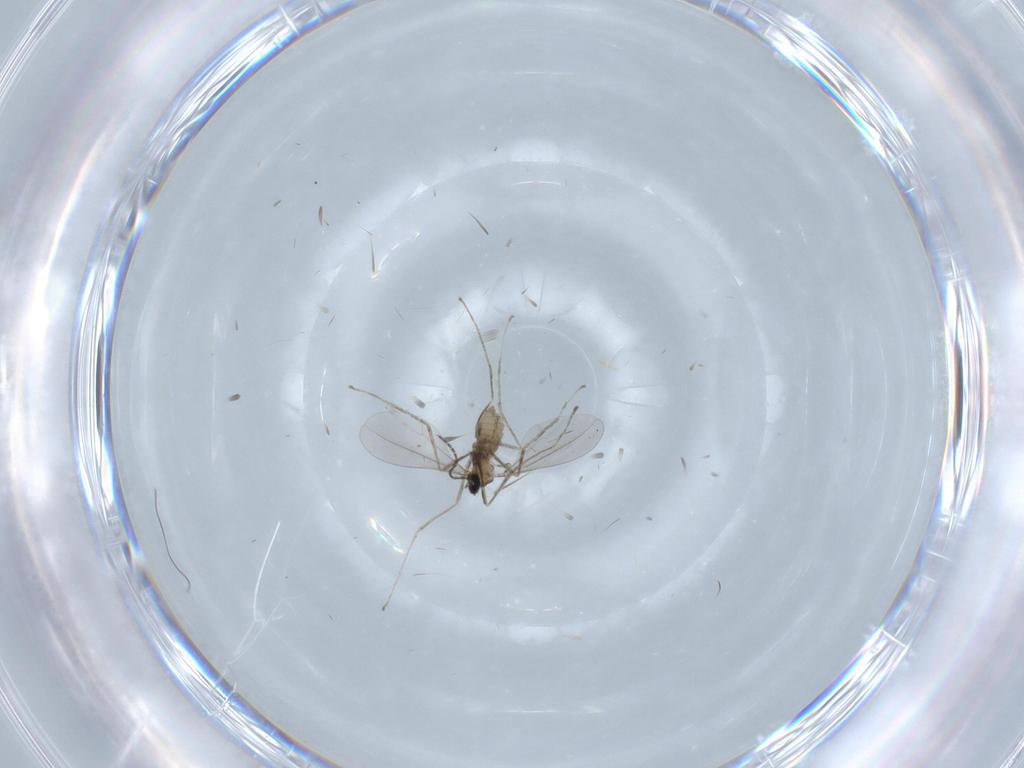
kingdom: Animalia
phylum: Arthropoda
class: Insecta
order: Diptera
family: Cecidomyiidae
